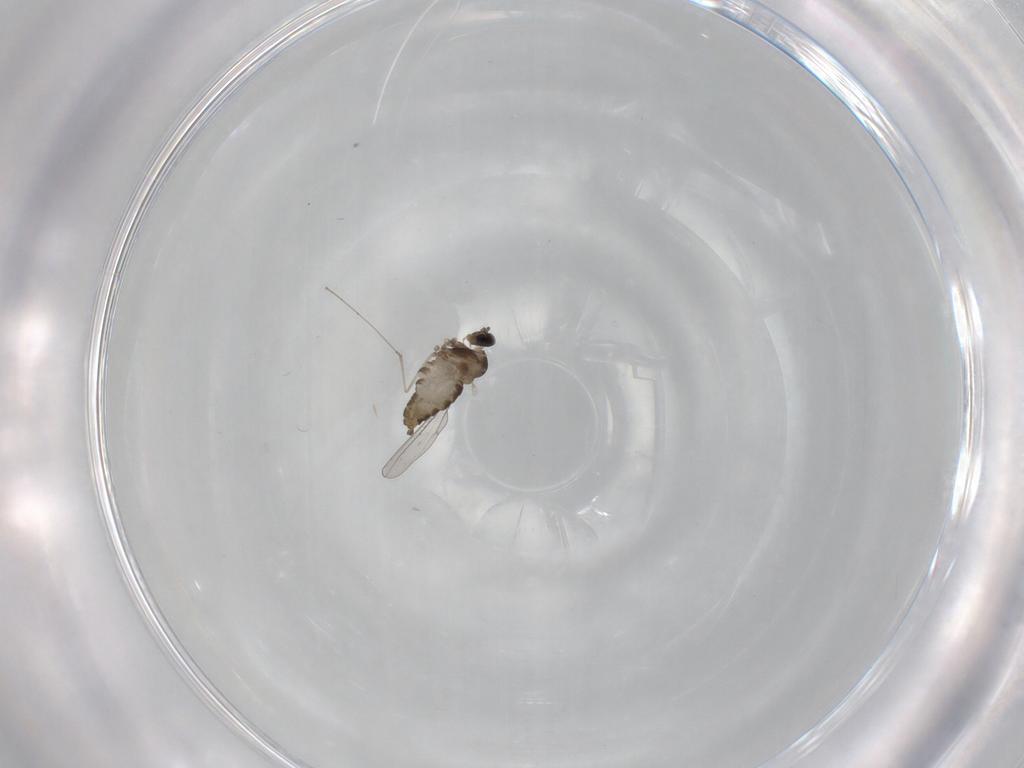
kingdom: Animalia
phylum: Arthropoda
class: Insecta
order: Diptera
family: Cecidomyiidae
